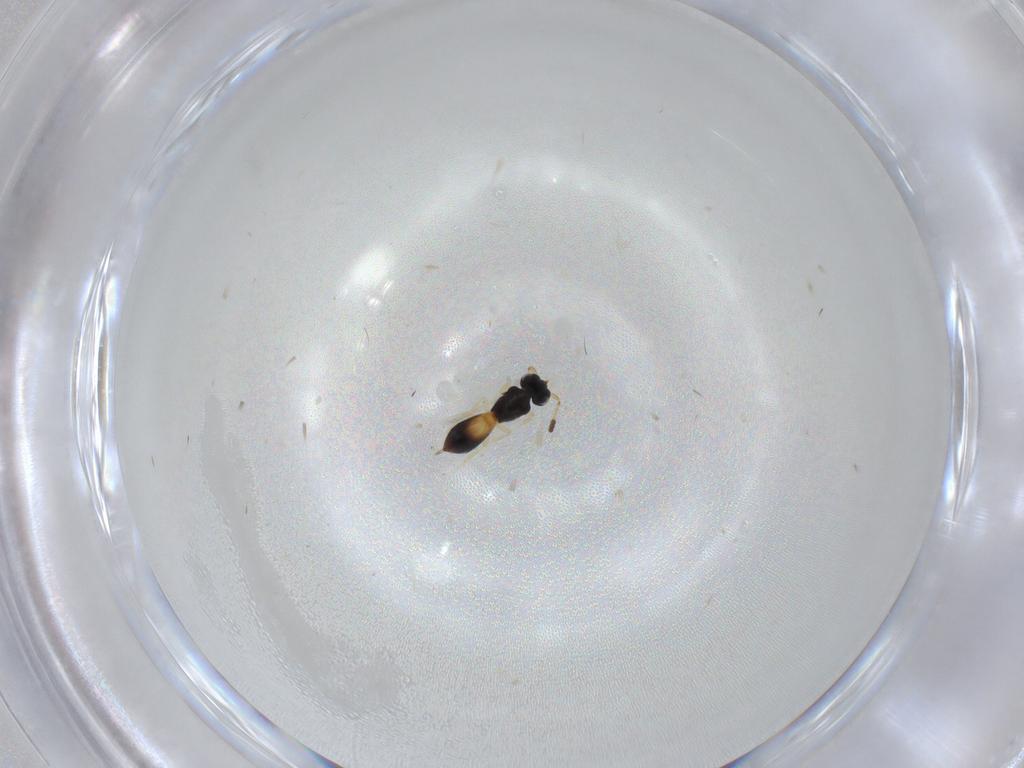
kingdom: Animalia
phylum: Arthropoda
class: Insecta
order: Hymenoptera
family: Scelionidae
